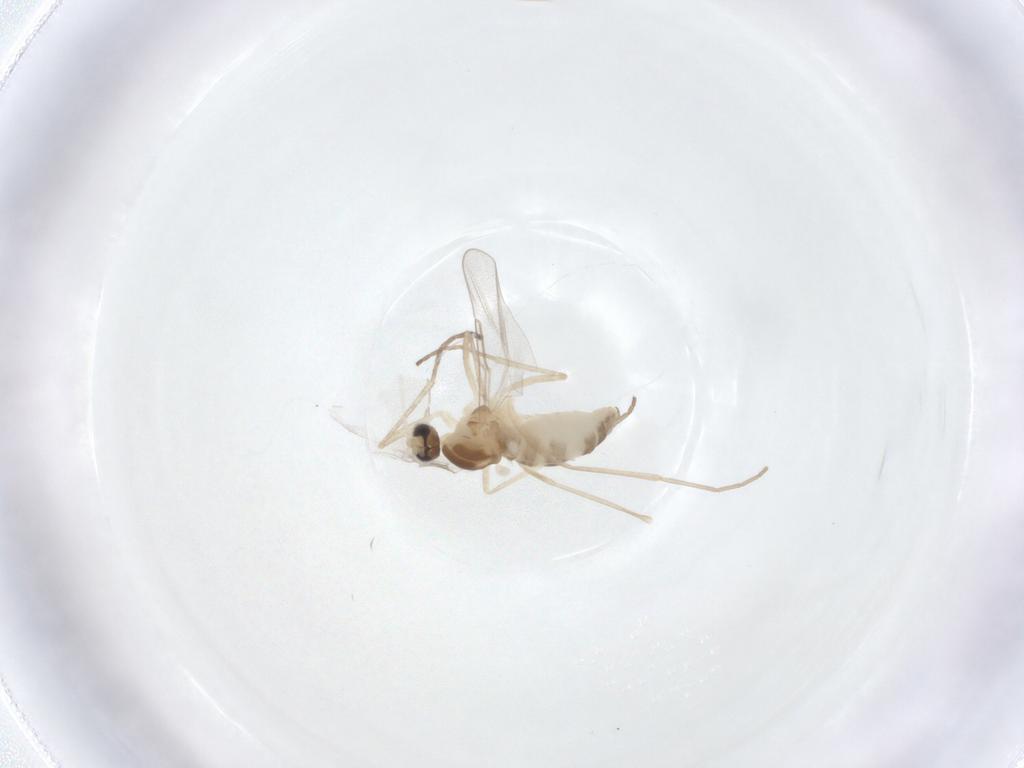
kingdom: Animalia
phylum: Arthropoda
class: Insecta
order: Diptera
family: Cecidomyiidae
